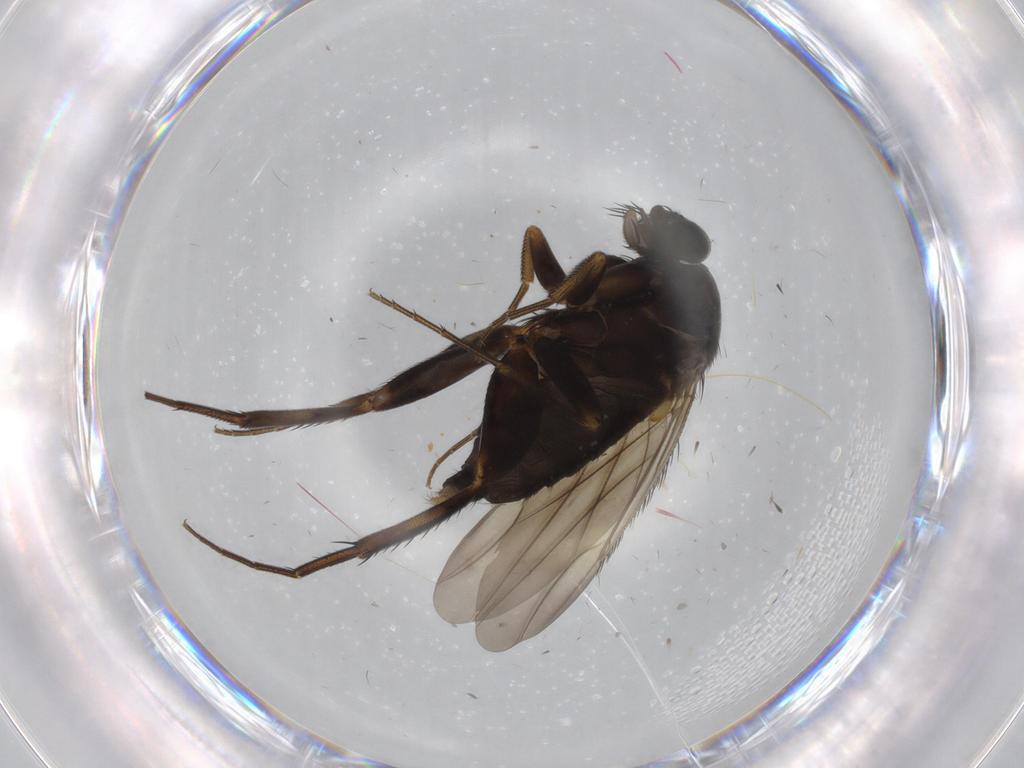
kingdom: Animalia
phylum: Arthropoda
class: Insecta
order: Diptera
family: Phoridae
